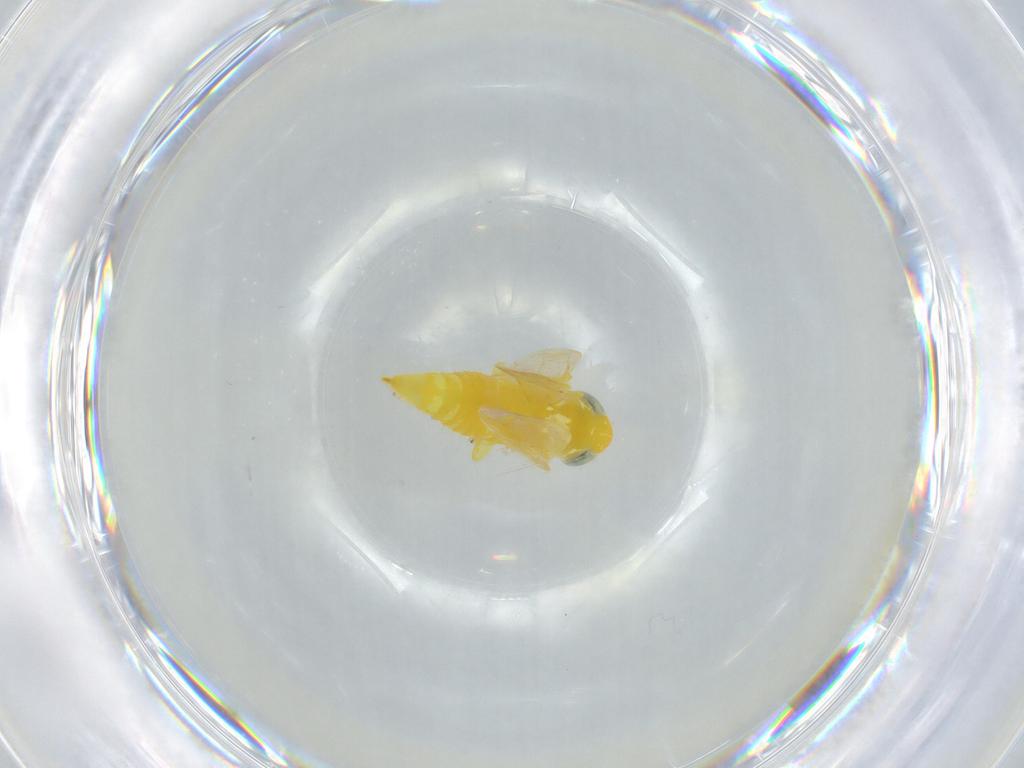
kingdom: Animalia
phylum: Arthropoda
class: Insecta
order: Hemiptera
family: Cicadellidae
